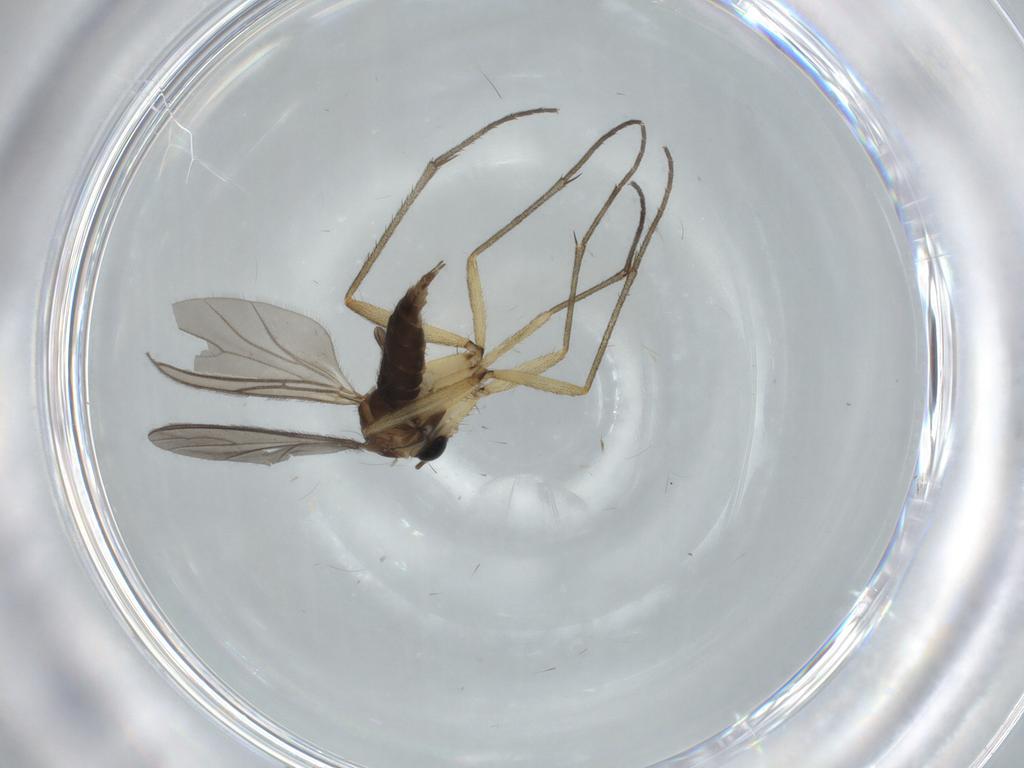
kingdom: Animalia
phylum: Arthropoda
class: Insecta
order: Diptera
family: Sciaridae
